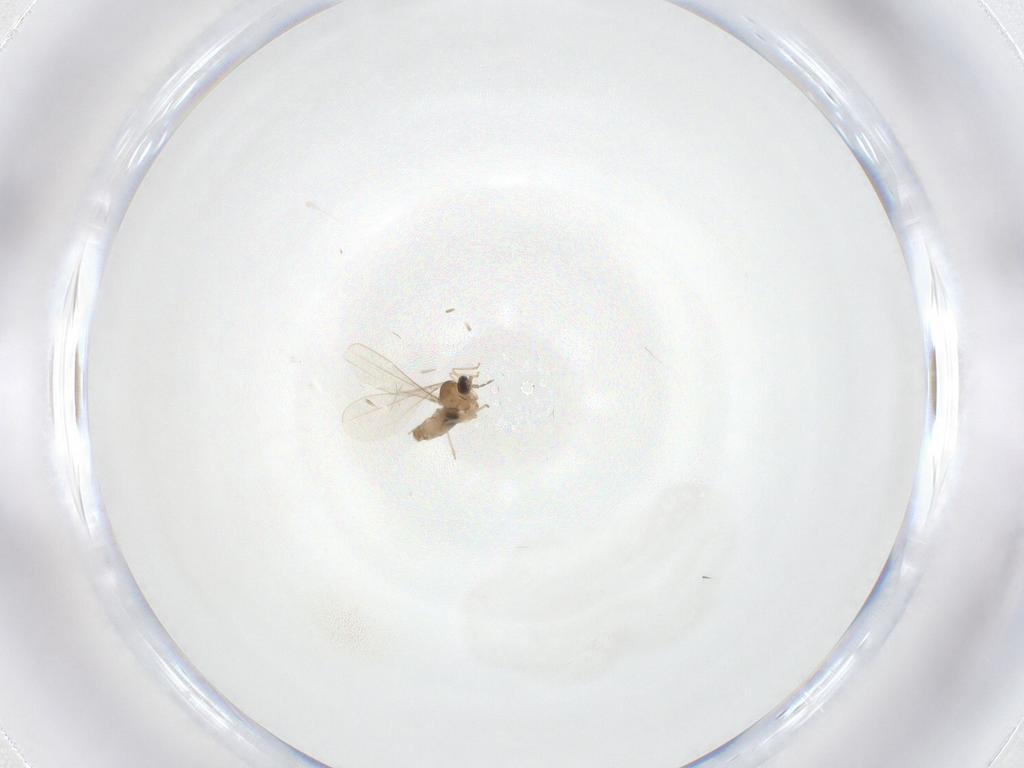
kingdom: Animalia
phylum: Arthropoda
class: Insecta
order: Diptera
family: Cecidomyiidae
